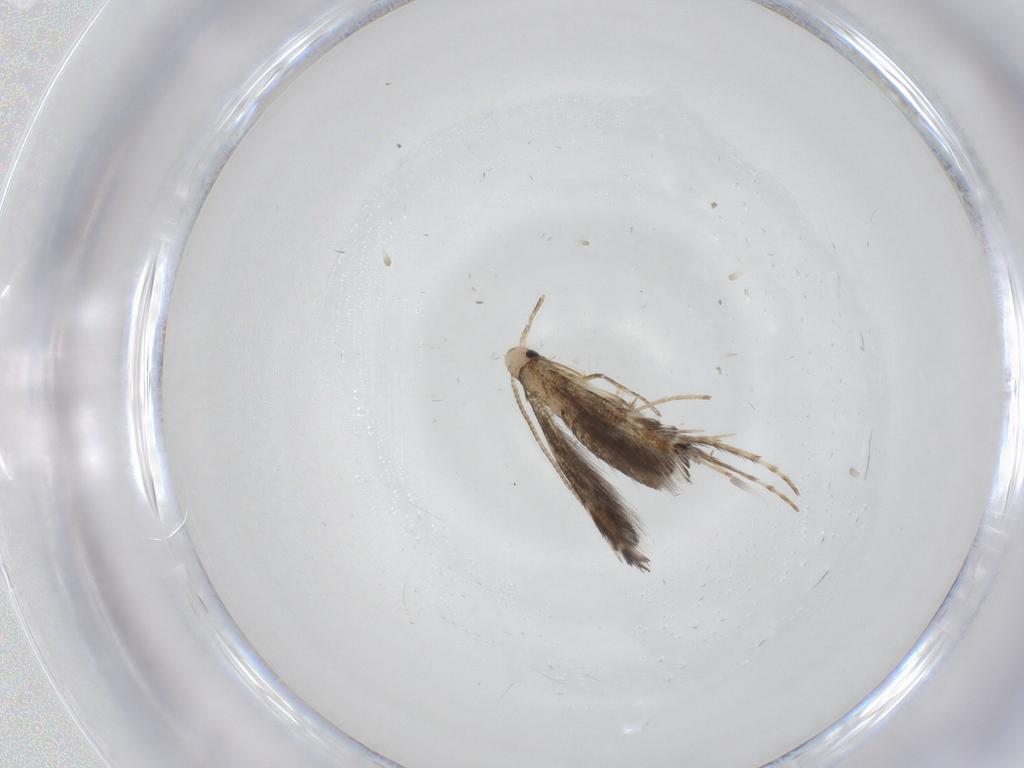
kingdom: Animalia
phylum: Arthropoda
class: Insecta
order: Lepidoptera
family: Nepticulidae
